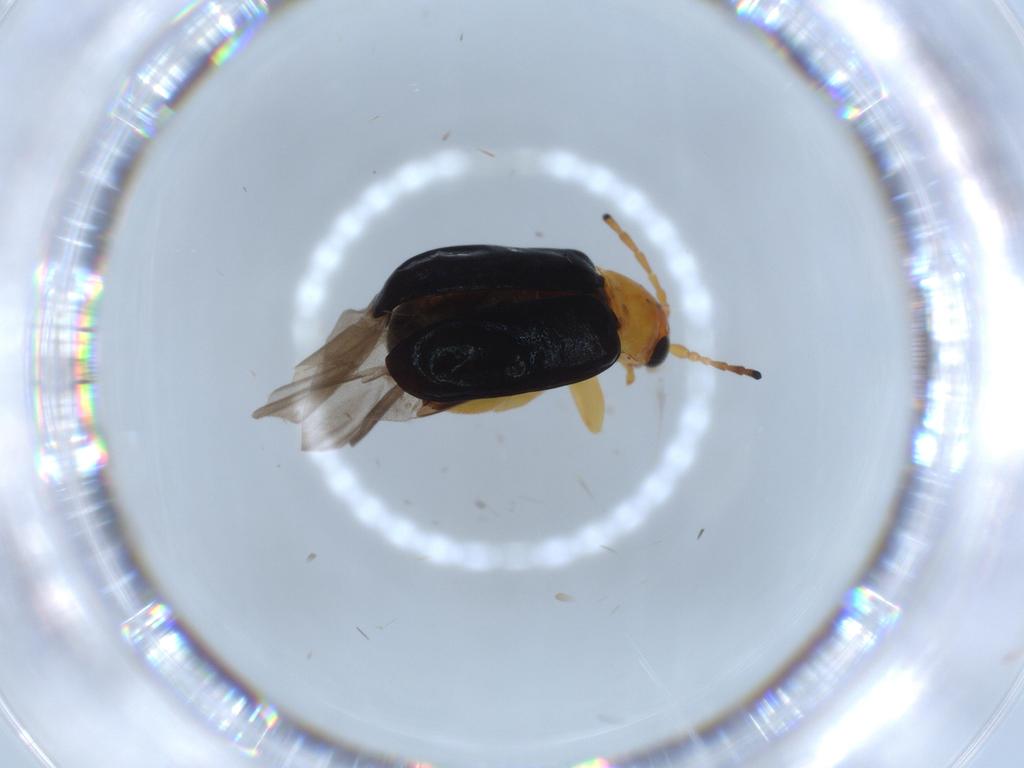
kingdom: Animalia
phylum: Arthropoda
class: Insecta
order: Coleoptera
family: Chrysomelidae
